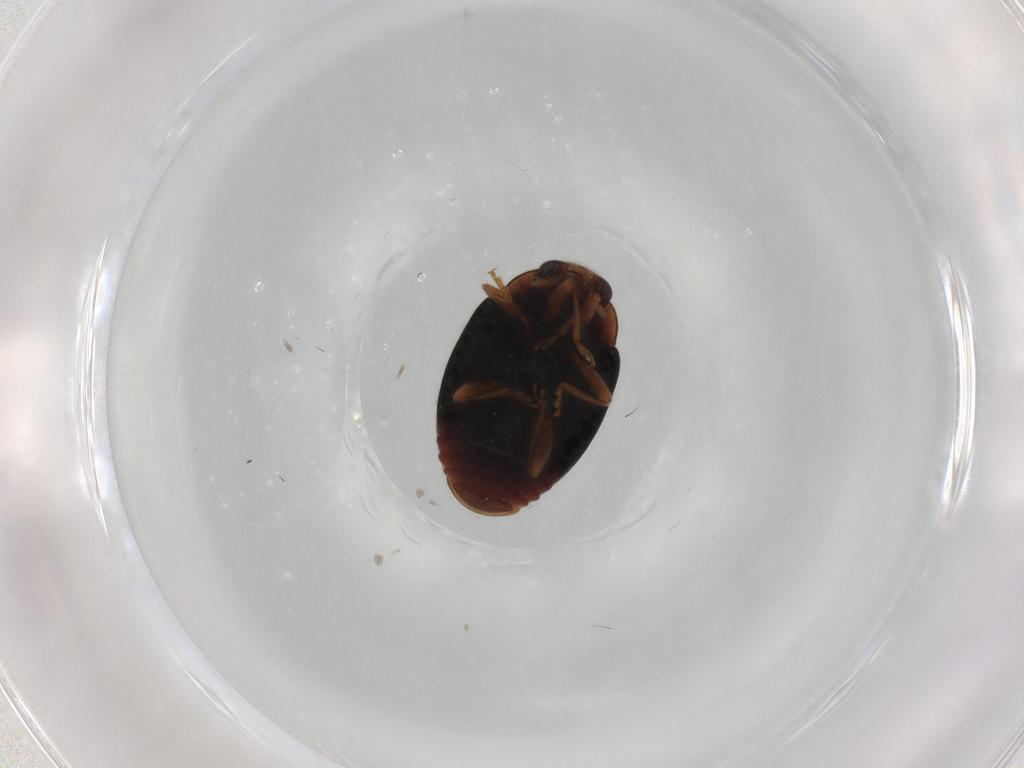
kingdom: Animalia
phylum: Arthropoda
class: Insecta
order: Coleoptera
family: Coccinellidae
